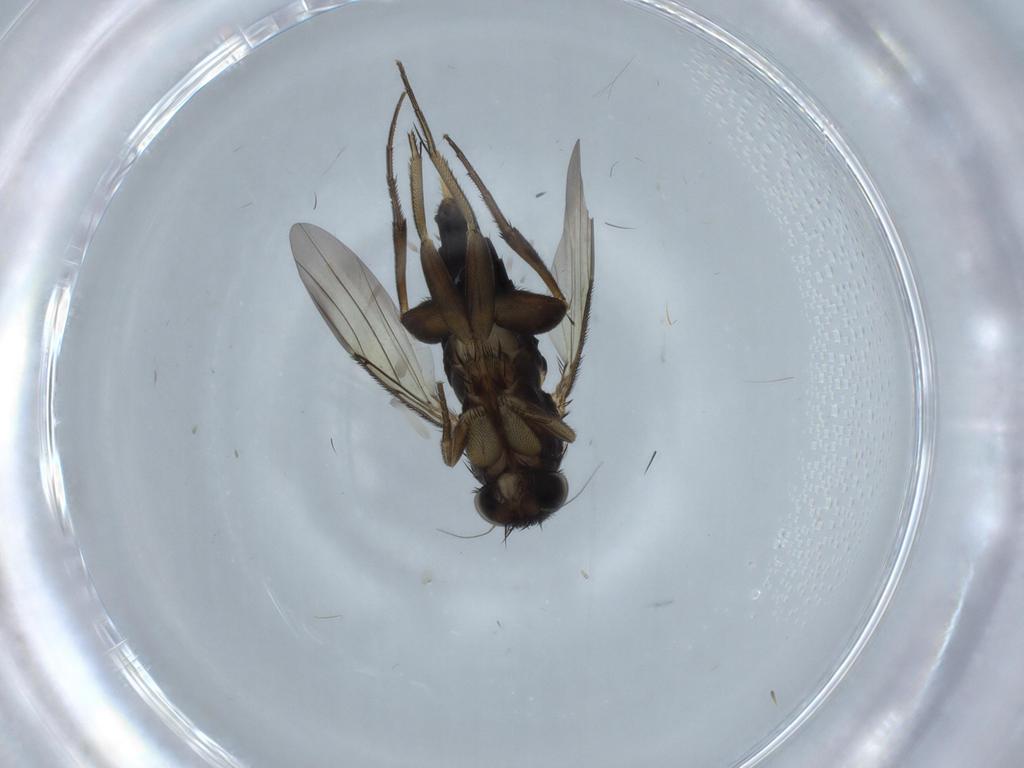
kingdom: Animalia
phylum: Arthropoda
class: Insecta
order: Diptera
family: Phoridae
